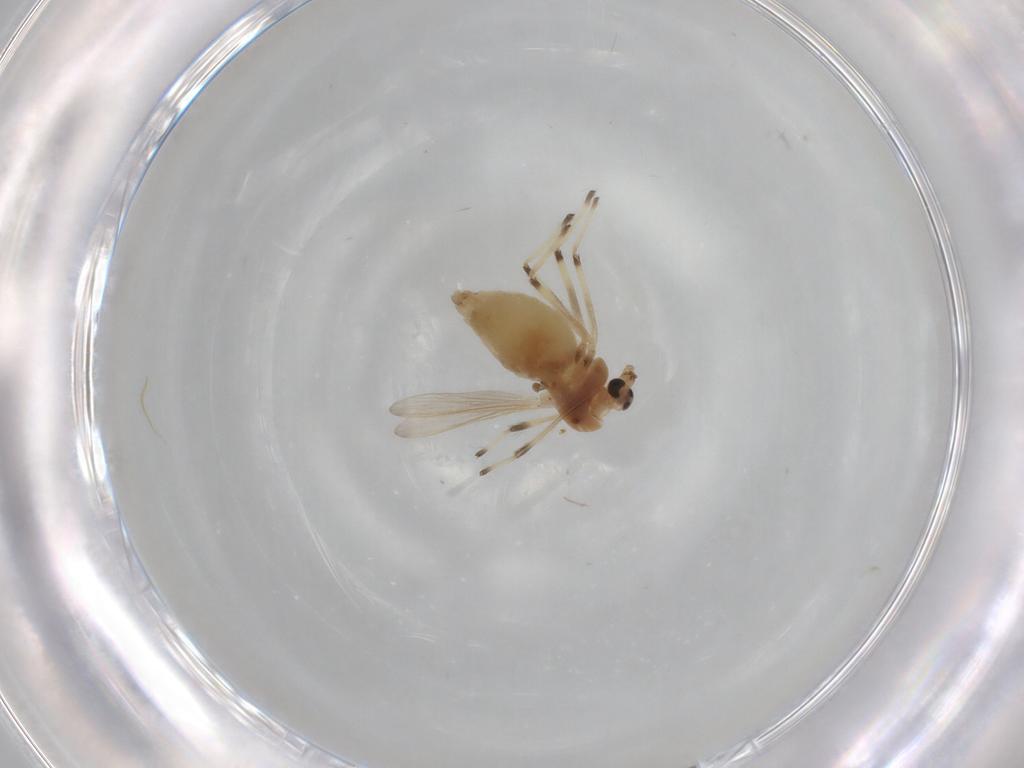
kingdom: Animalia
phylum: Arthropoda
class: Insecta
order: Diptera
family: Chironomidae
